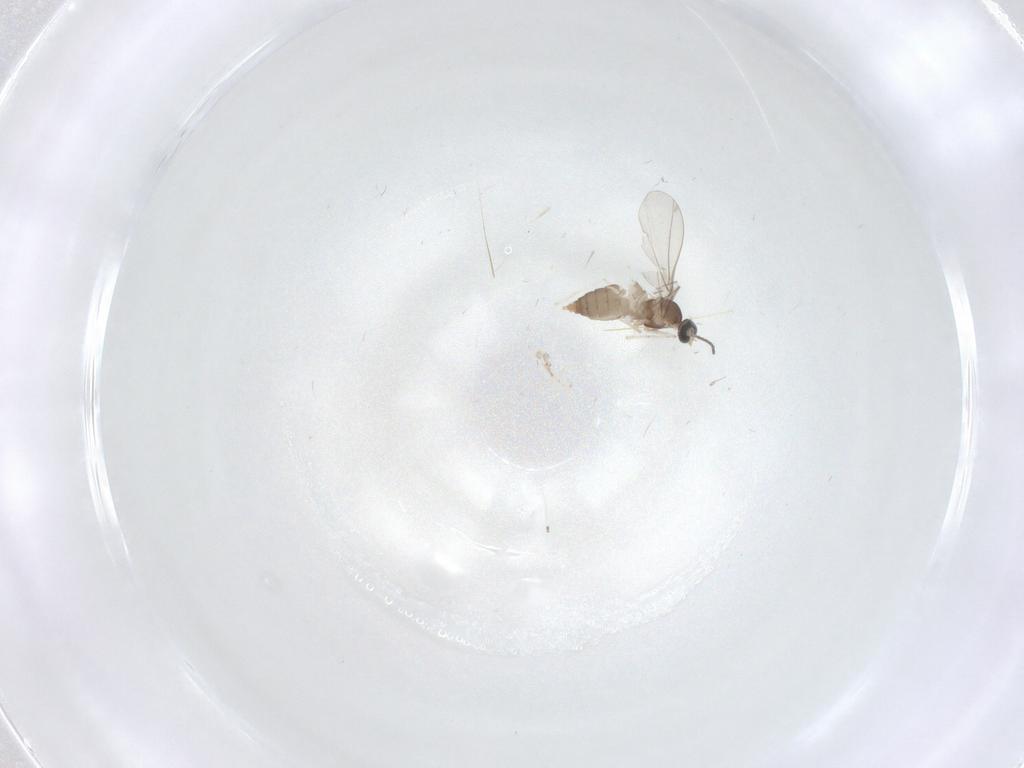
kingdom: Animalia
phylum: Arthropoda
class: Insecta
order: Diptera
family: Cecidomyiidae
